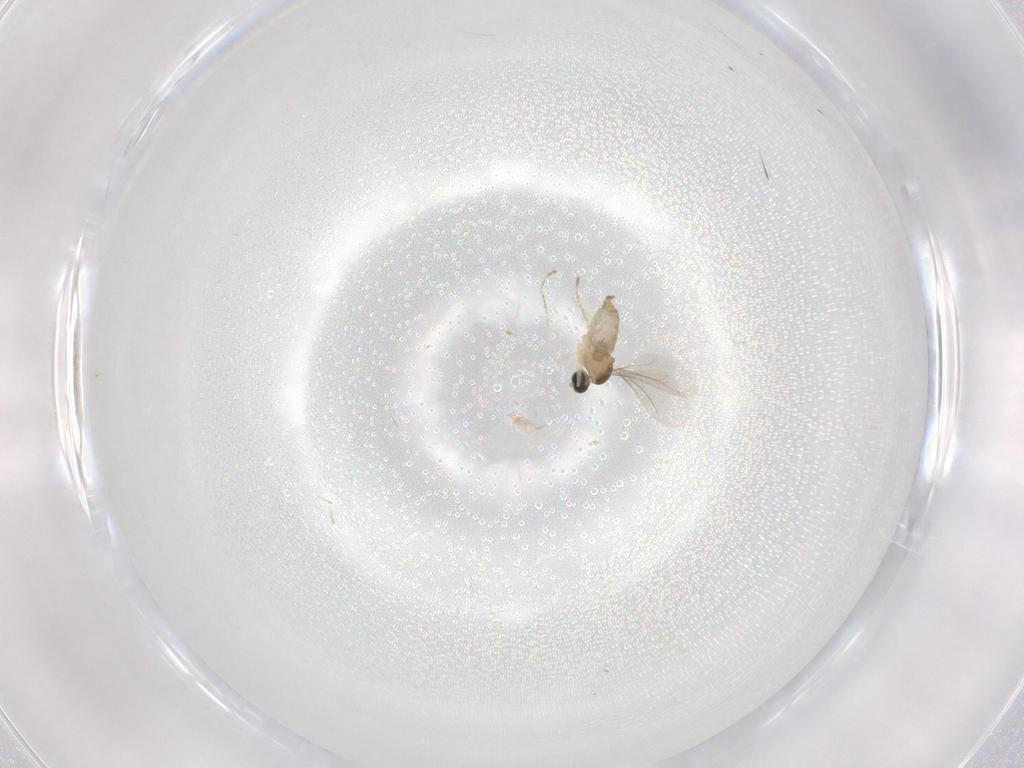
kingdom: Animalia
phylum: Arthropoda
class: Insecta
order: Diptera
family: Cecidomyiidae
